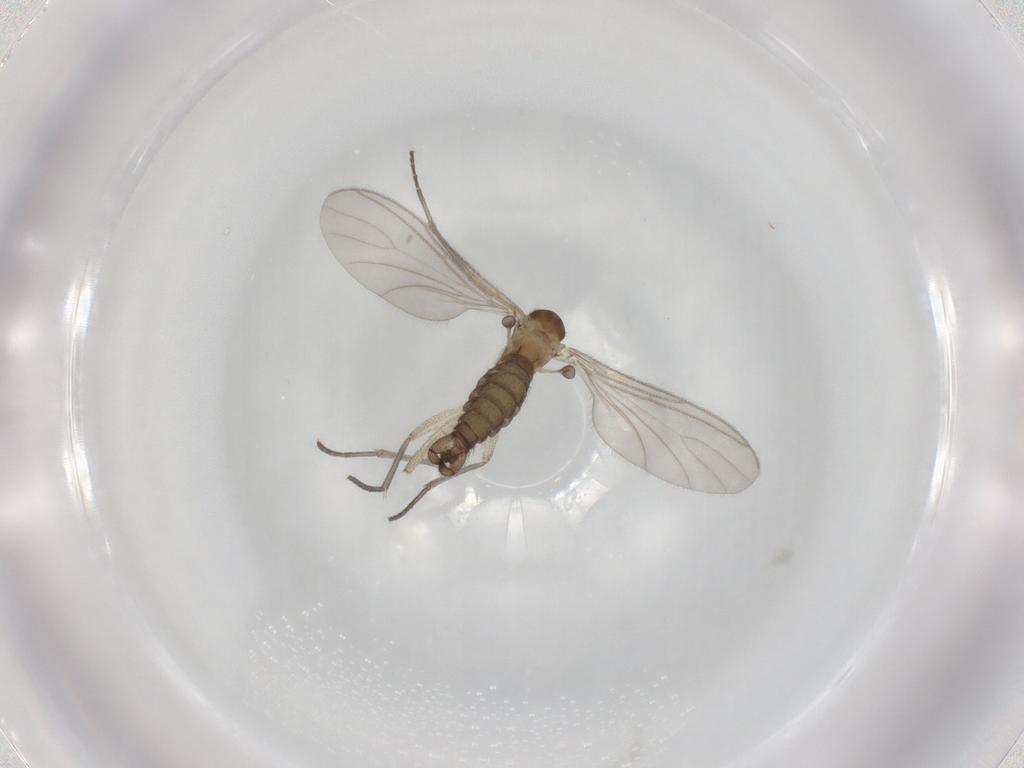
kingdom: Animalia
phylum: Arthropoda
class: Insecta
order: Diptera
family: Sciaridae
